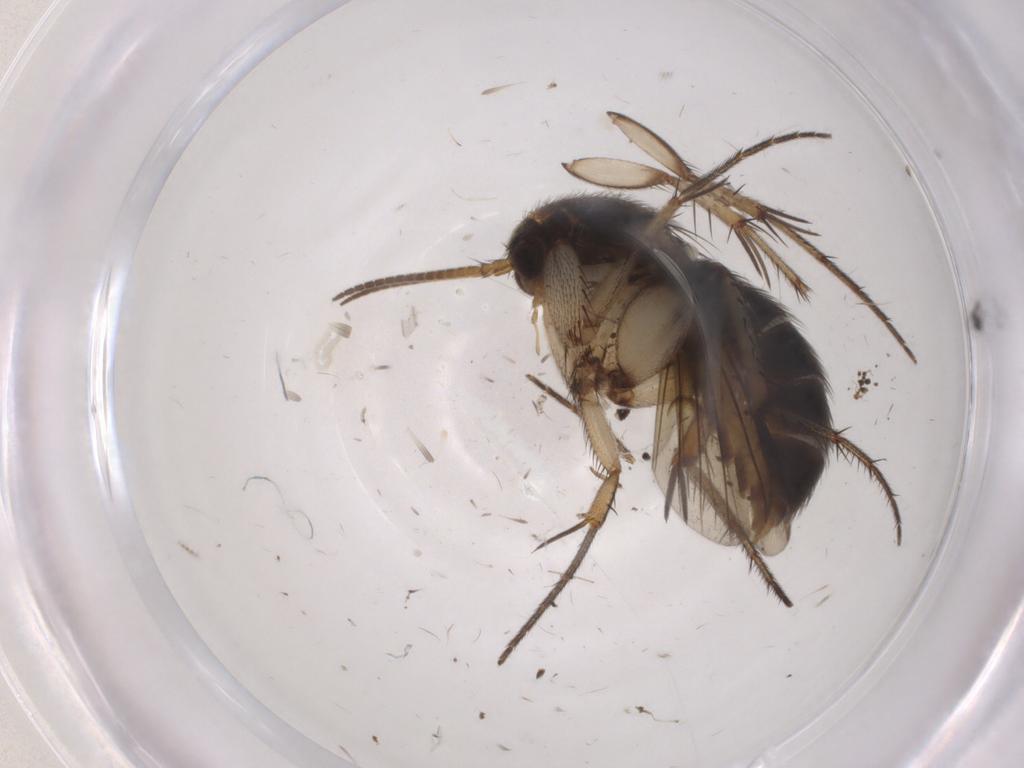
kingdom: Animalia
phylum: Arthropoda
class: Insecta
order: Diptera
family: Mycetophilidae
